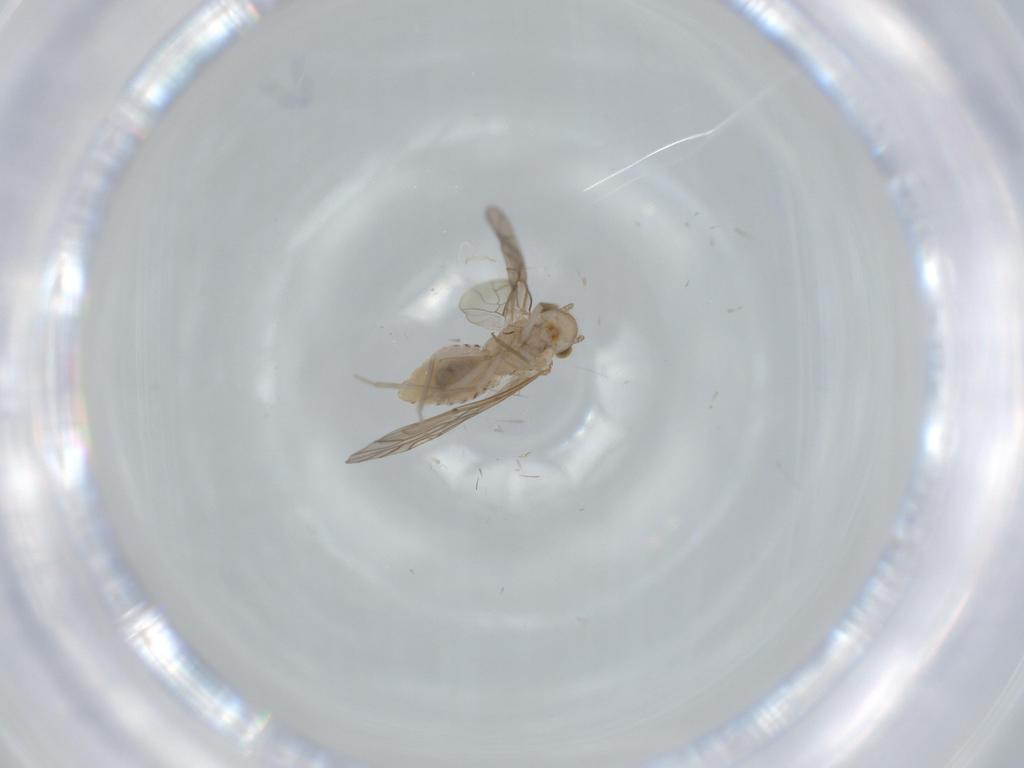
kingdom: Animalia
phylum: Arthropoda
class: Insecta
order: Psocodea
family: Lachesillidae
